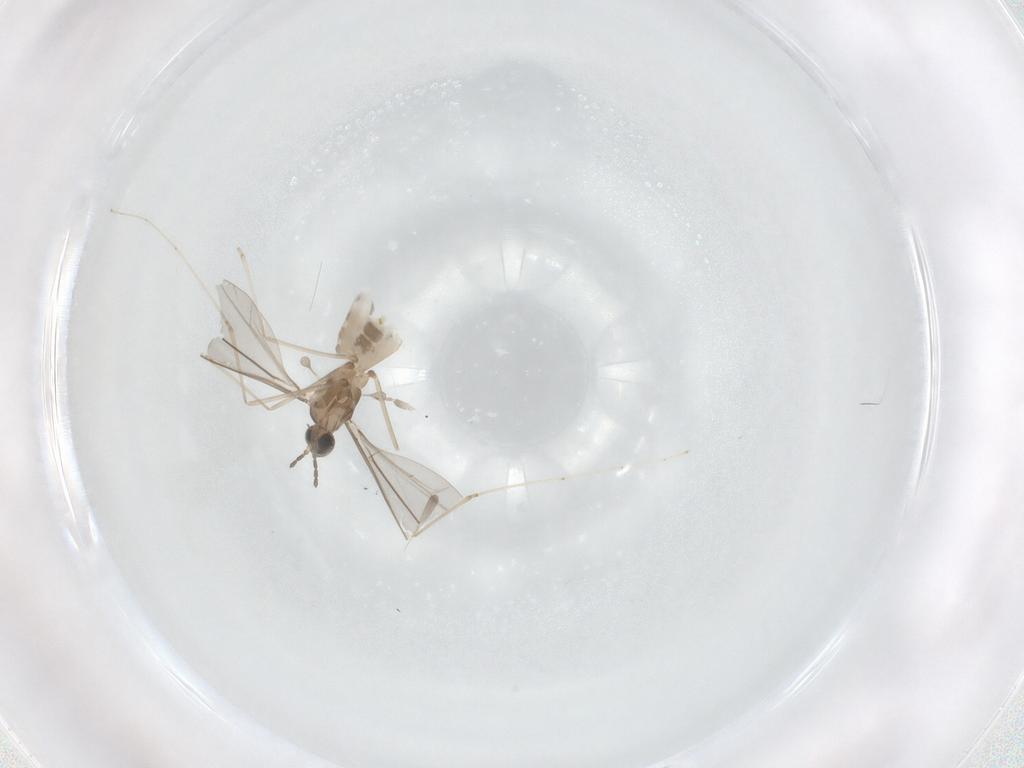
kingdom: Animalia
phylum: Arthropoda
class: Insecta
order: Diptera
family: Cecidomyiidae
